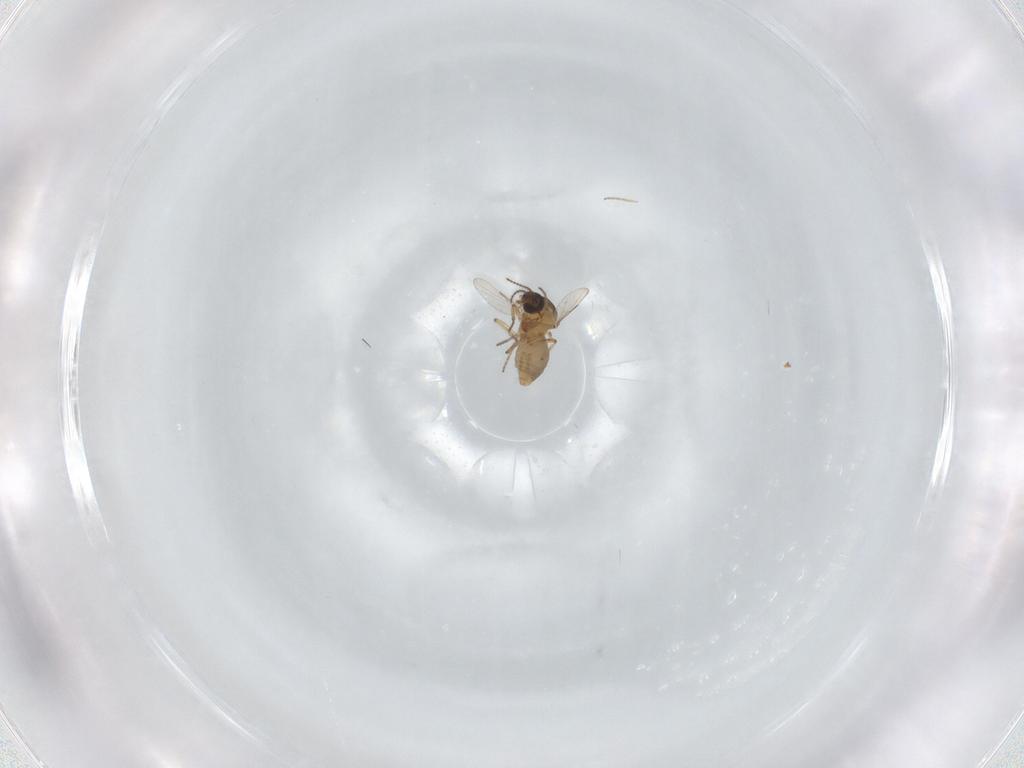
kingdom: Animalia
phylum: Arthropoda
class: Insecta
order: Diptera
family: Ceratopogonidae
